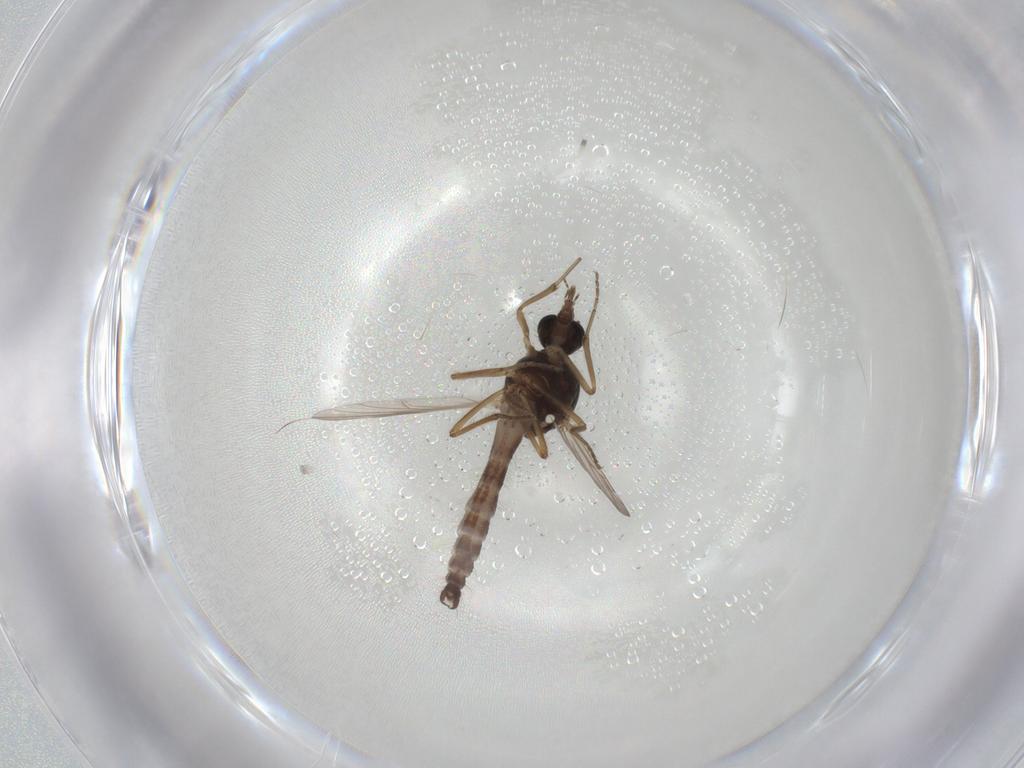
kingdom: Animalia
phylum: Arthropoda
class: Insecta
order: Diptera
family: Ceratopogonidae
